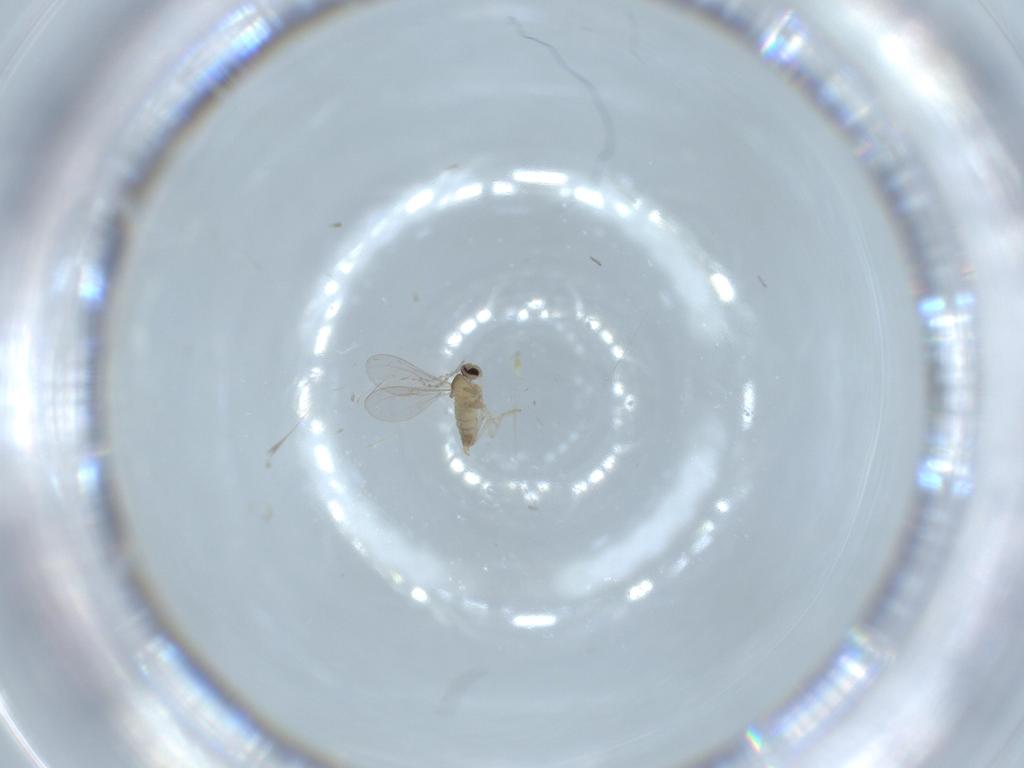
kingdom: Animalia
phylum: Arthropoda
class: Insecta
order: Diptera
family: Cecidomyiidae
